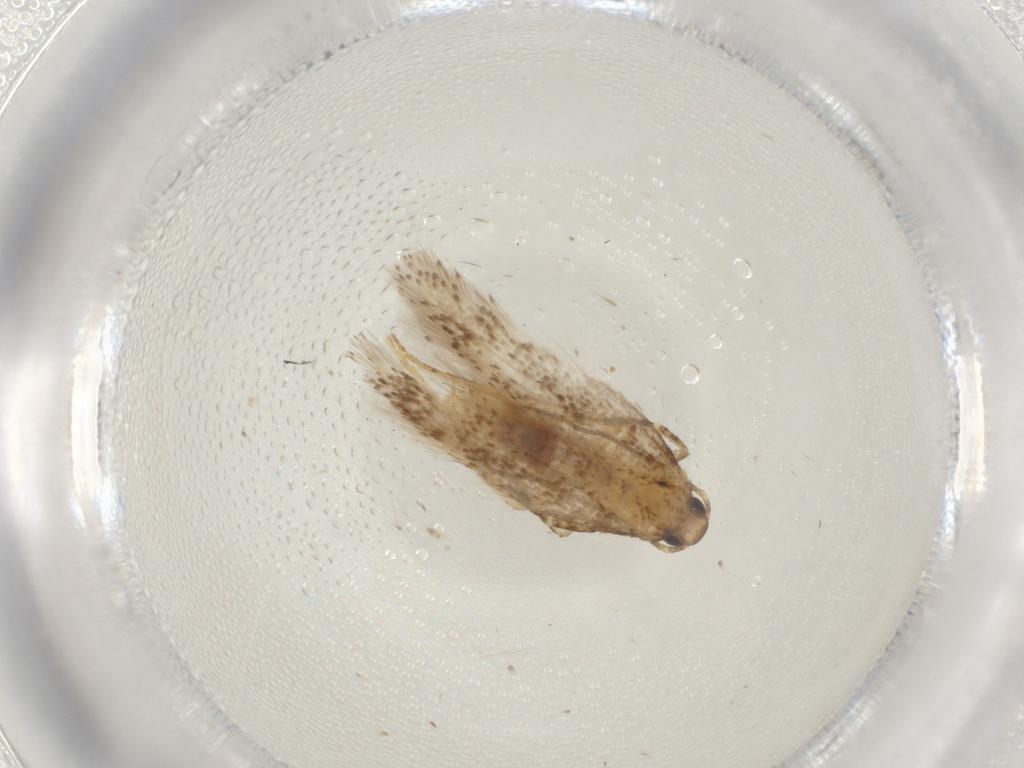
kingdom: Animalia
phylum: Arthropoda
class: Insecta
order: Lepidoptera
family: Gelechiidae
